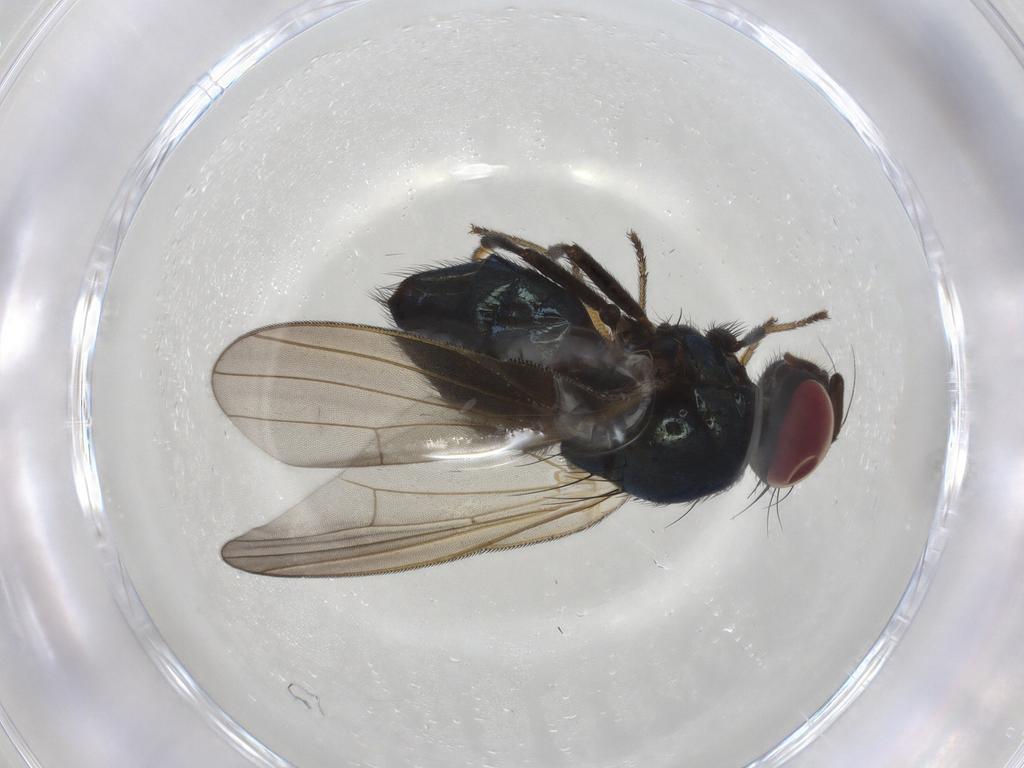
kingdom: Animalia
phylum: Arthropoda
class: Insecta
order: Diptera
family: Lonchaeidae
